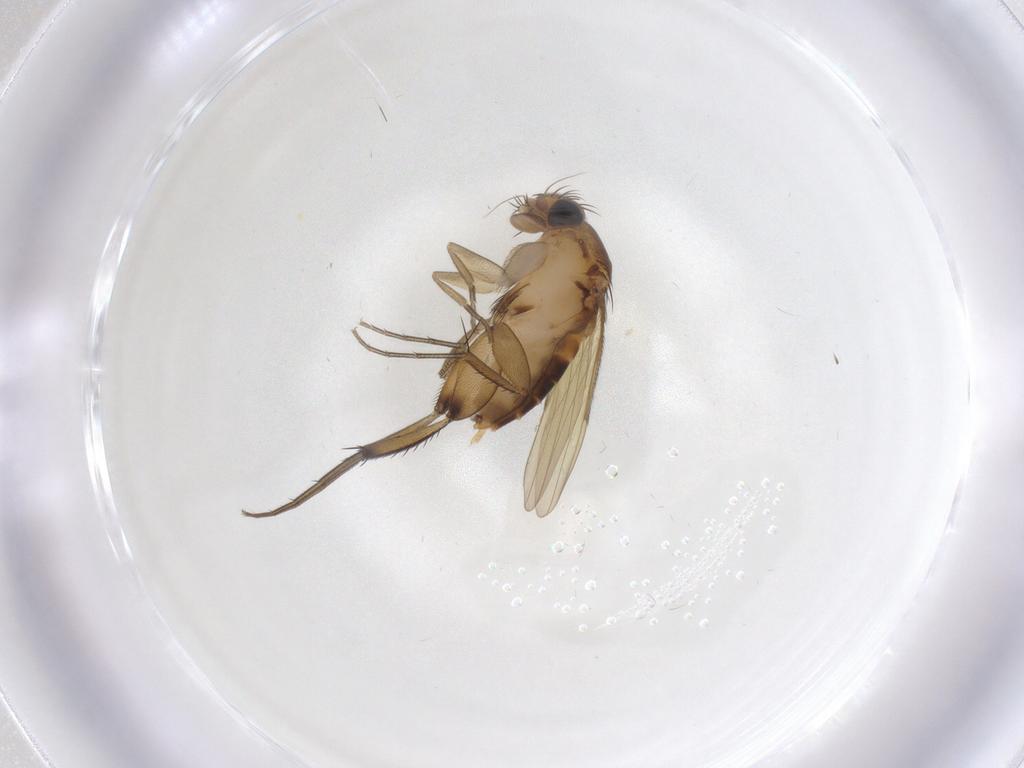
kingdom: Animalia
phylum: Arthropoda
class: Insecta
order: Diptera
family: Phoridae
